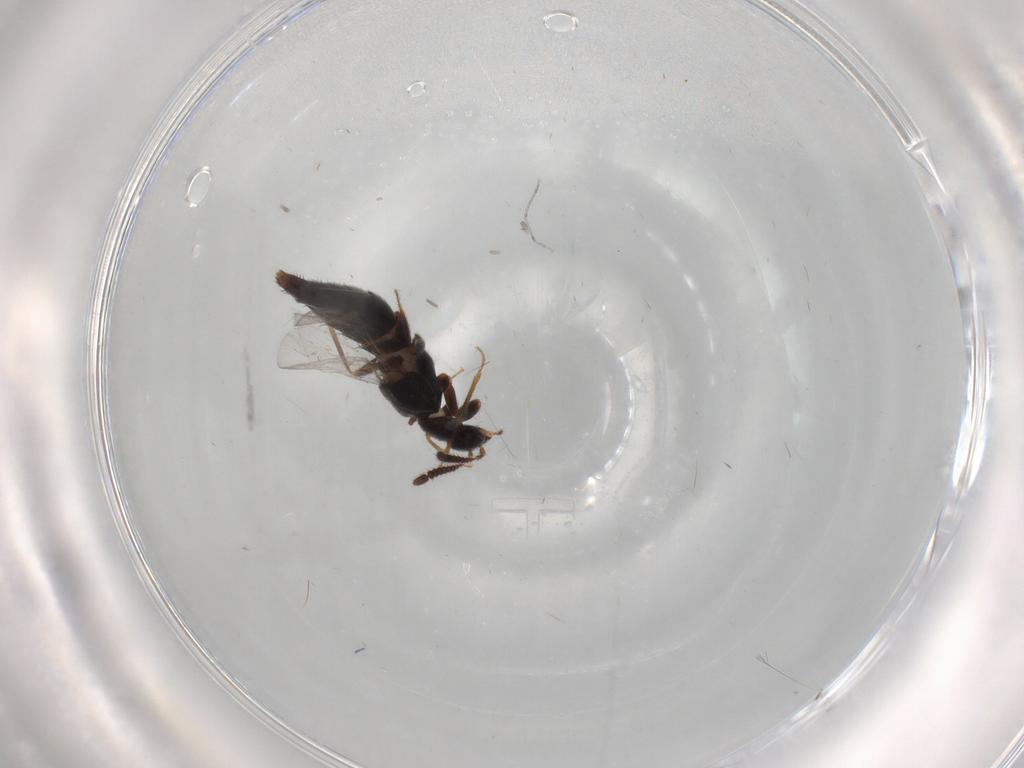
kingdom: Animalia
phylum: Arthropoda
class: Insecta
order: Coleoptera
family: Staphylinidae
